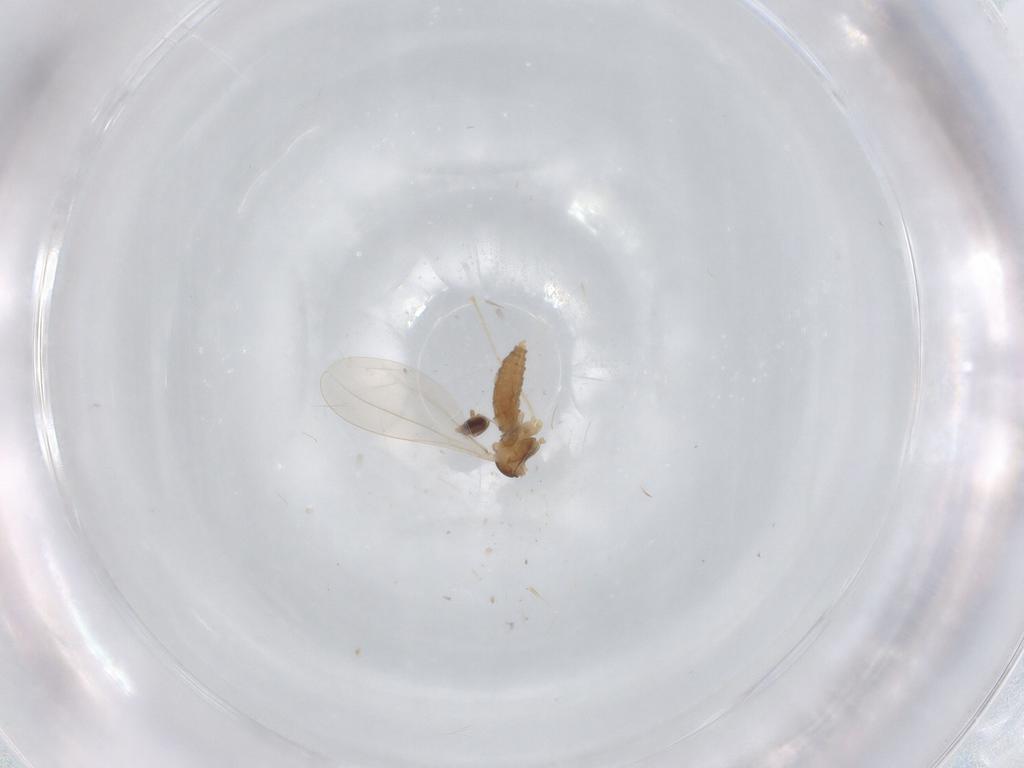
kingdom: Animalia
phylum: Arthropoda
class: Insecta
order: Diptera
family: Cecidomyiidae
